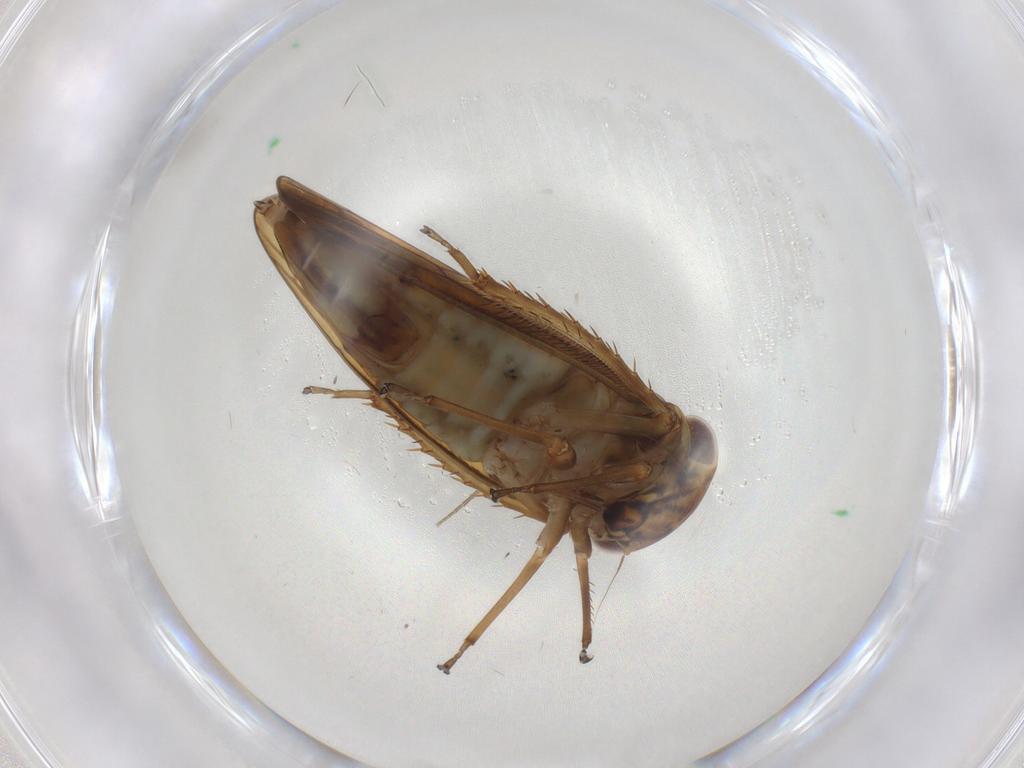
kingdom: Animalia
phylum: Arthropoda
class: Insecta
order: Hemiptera
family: Cicadellidae
